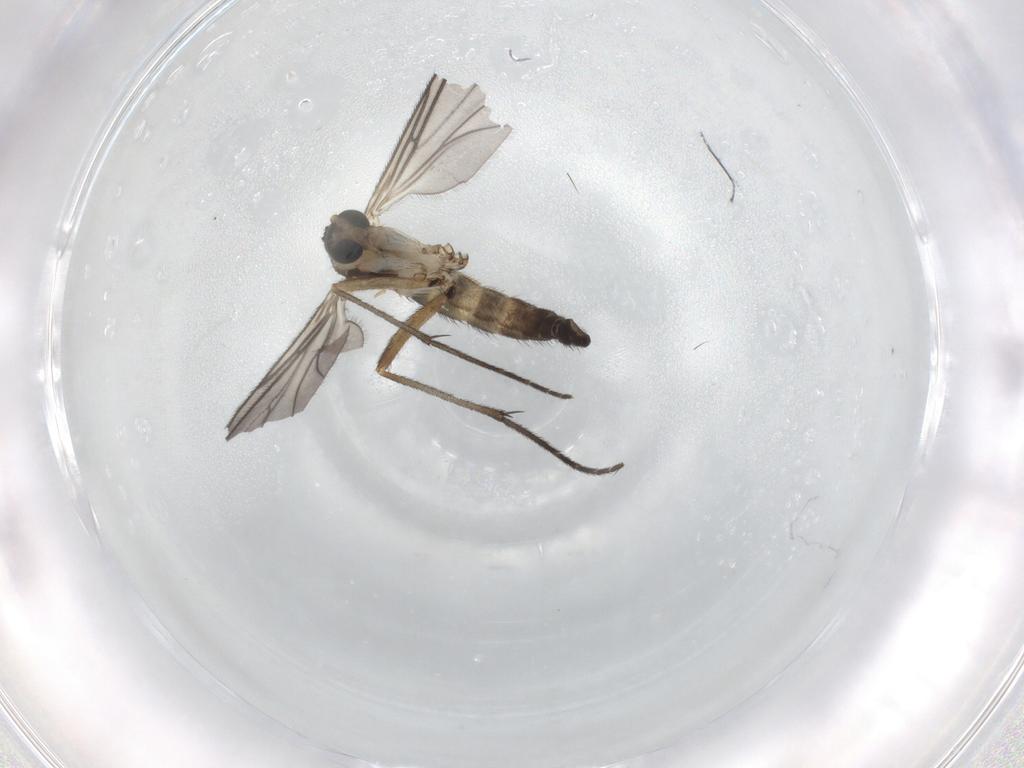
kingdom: Animalia
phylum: Arthropoda
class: Insecta
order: Diptera
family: Sciaridae
